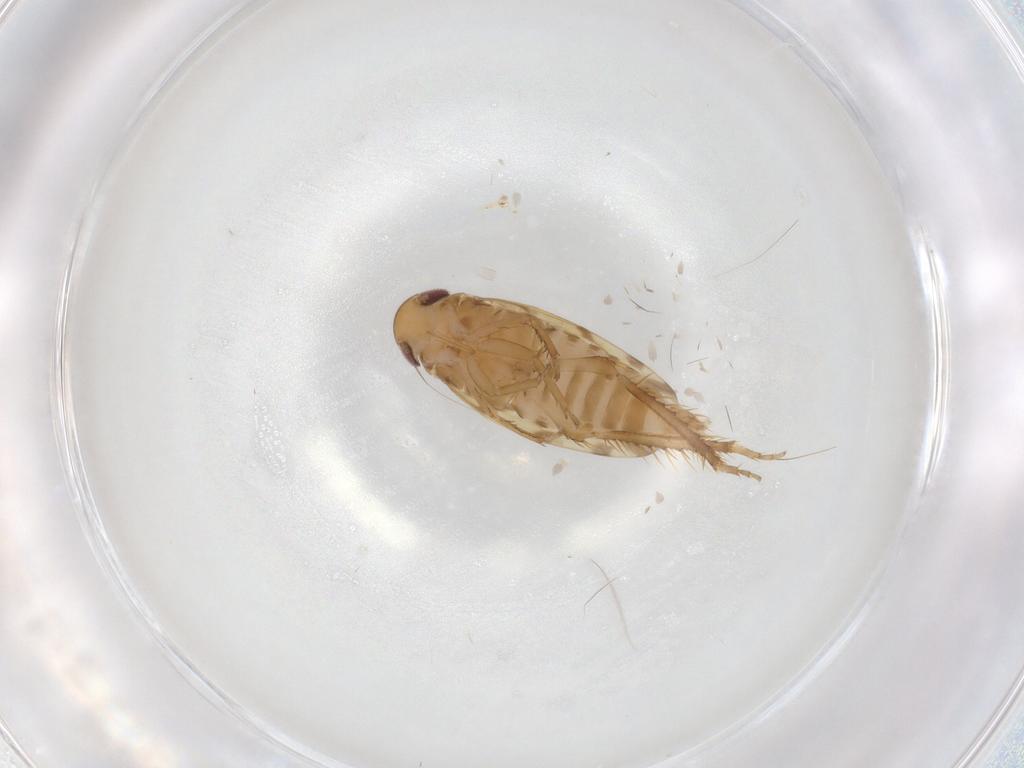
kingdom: Animalia
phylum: Arthropoda
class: Insecta
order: Hemiptera
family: Cicadellidae
